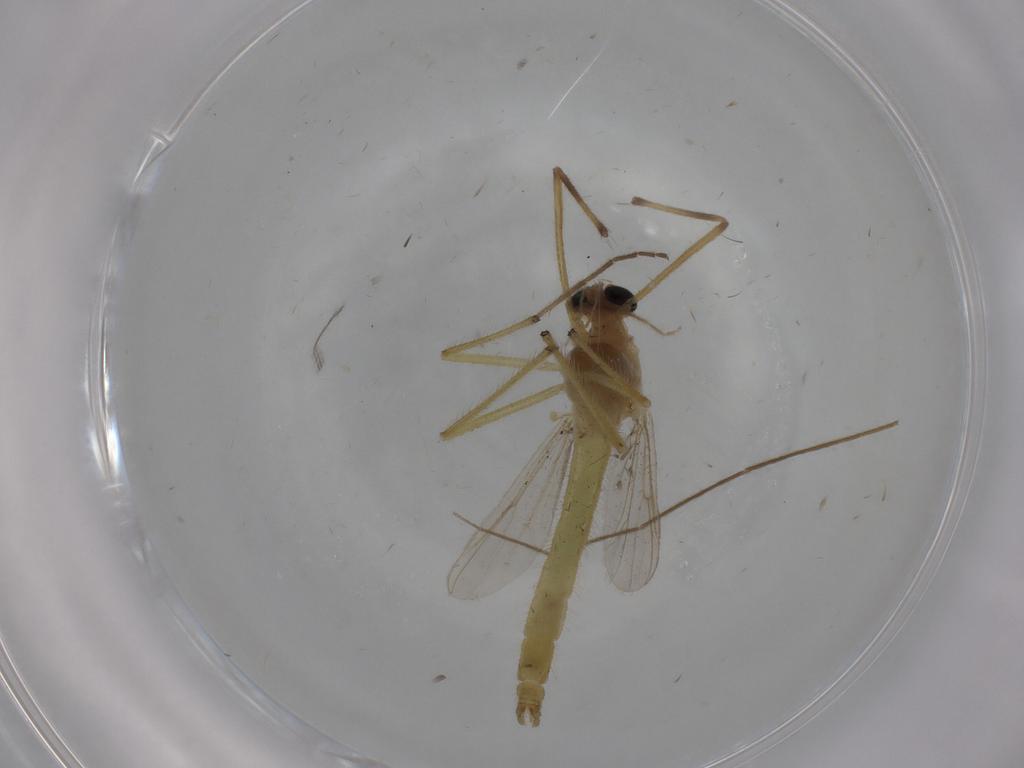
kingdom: Animalia
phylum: Arthropoda
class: Insecta
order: Diptera
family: Chironomidae
